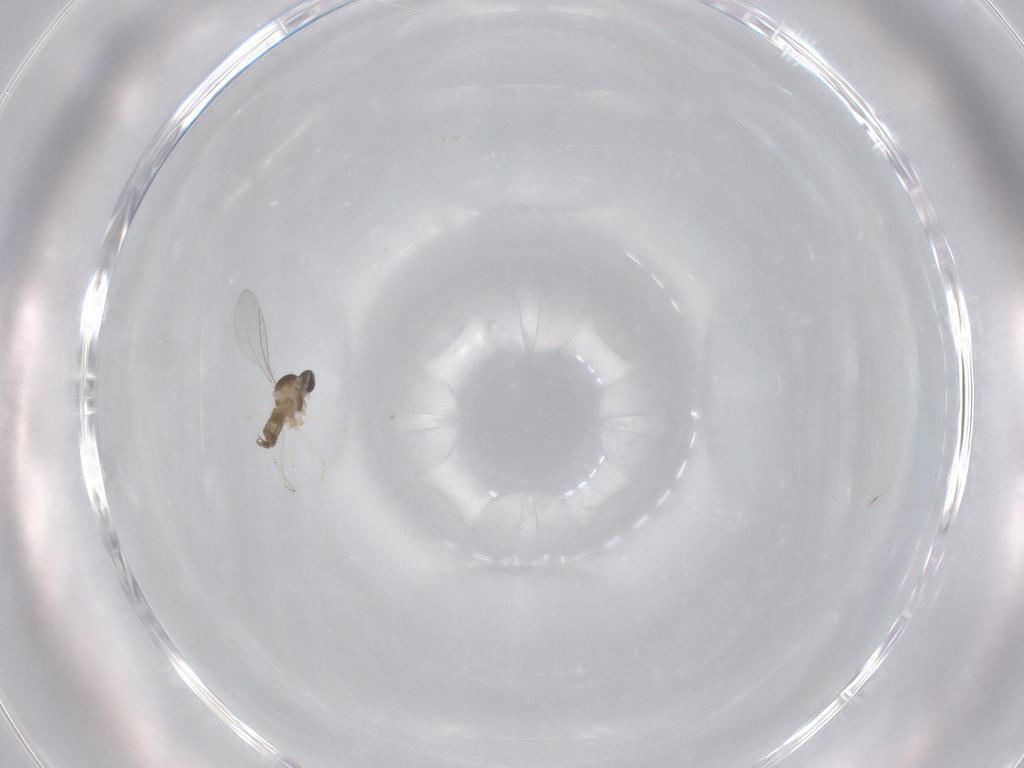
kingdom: Animalia
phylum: Arthropoda
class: Insecta
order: Diptera
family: Cecidomyiidae
